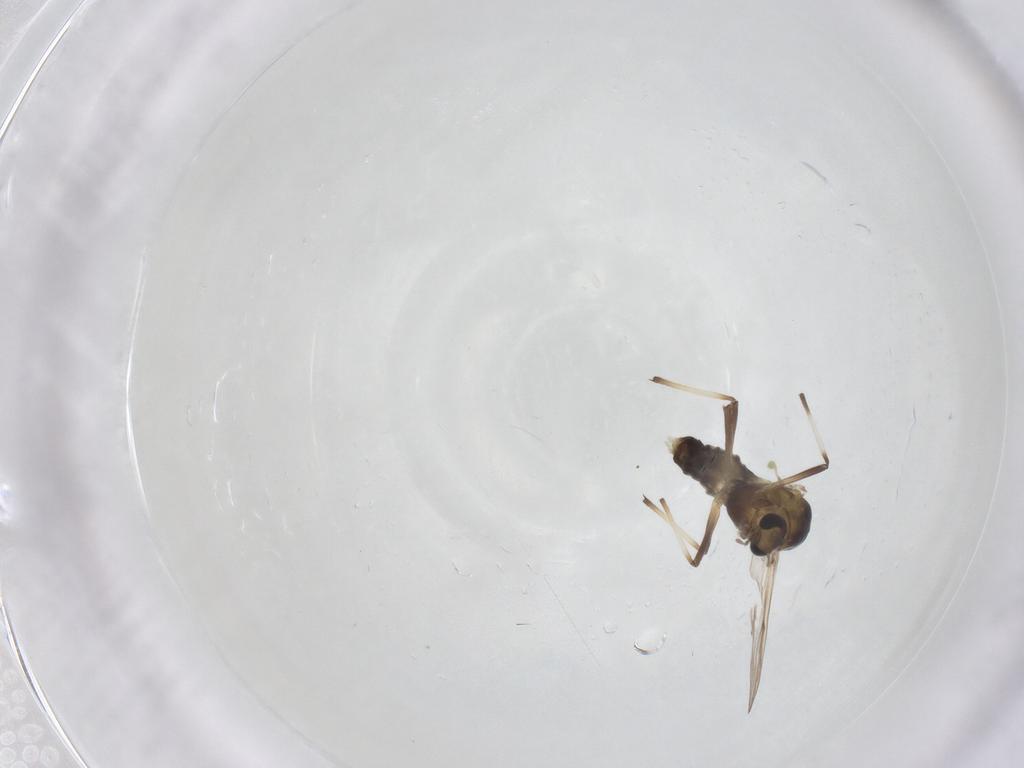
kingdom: Animalia
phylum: Arthropoda
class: Insecta
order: Diptera
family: Chironomidae
